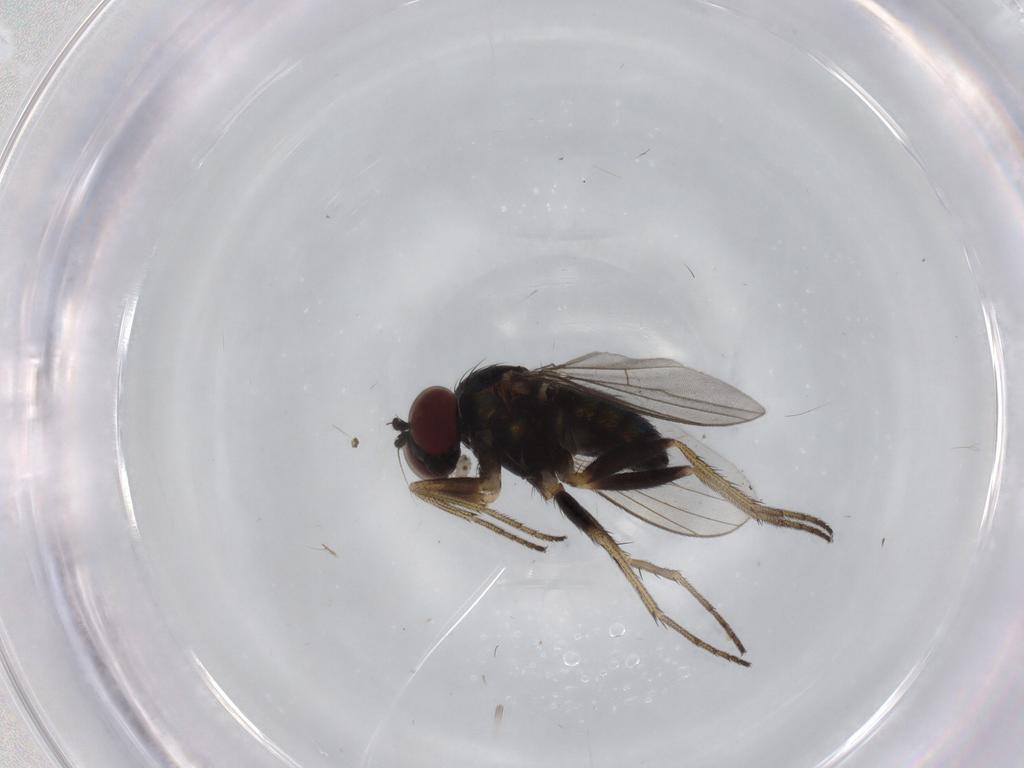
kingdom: Animalia
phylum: Arthropoda
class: Insecta
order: Diptera
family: Dolichopodidae
